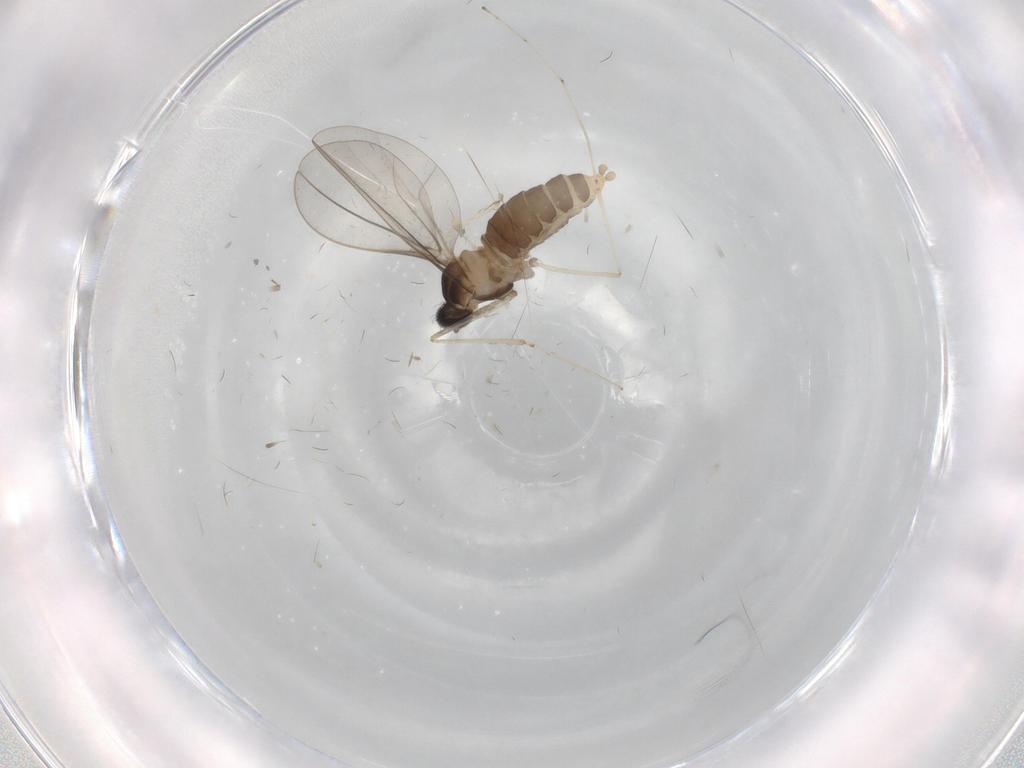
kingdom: Animalia
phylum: Arthropoda
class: Insecta
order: Diptera
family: Cecidomyiidae
